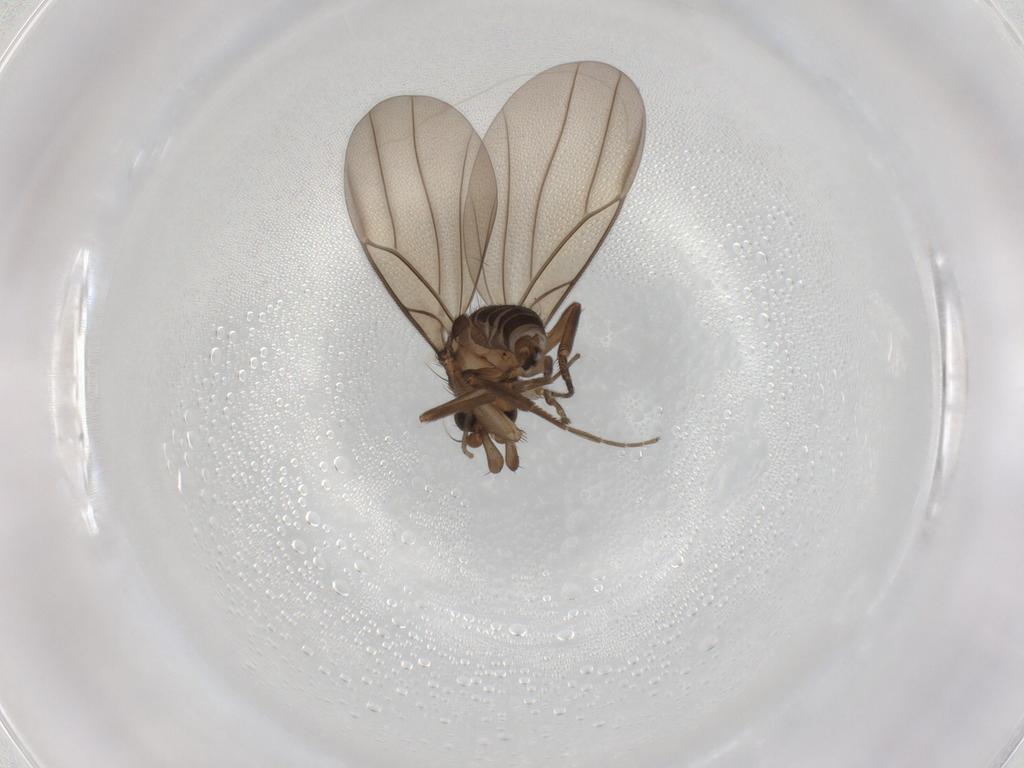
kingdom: Animalia
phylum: Arthropoda
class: Insecta
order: Diptera
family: Phoridae
